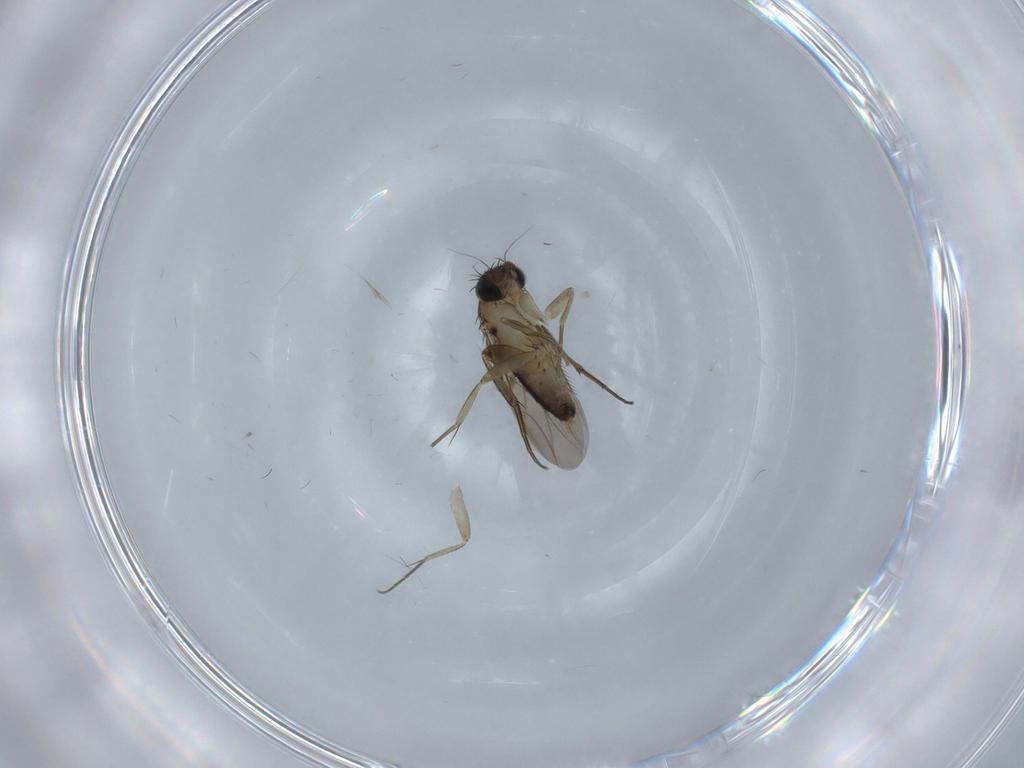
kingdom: Animalia
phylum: Arthropoda
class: Insecta
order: Diptera
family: Phoridae
